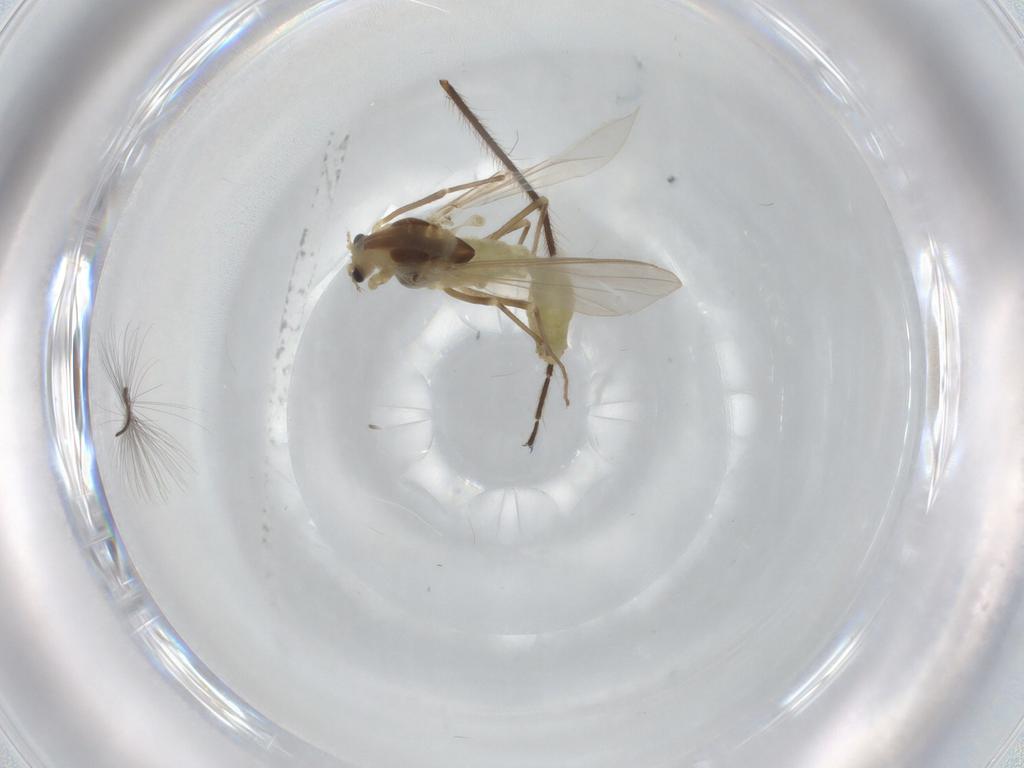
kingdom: Animalia
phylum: Arthropoda
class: Insecta
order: Diptera
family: Chironomidae
